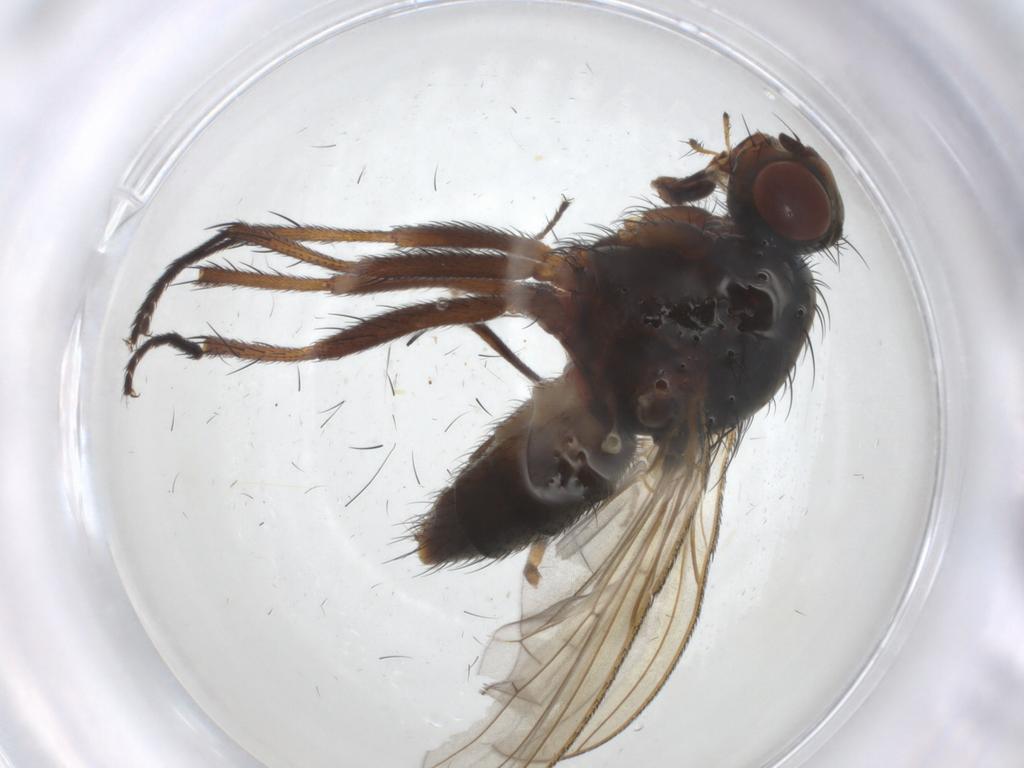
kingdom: Animalia
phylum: Arthropoda
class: Insecta
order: Diptera
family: Anthomyiidae
